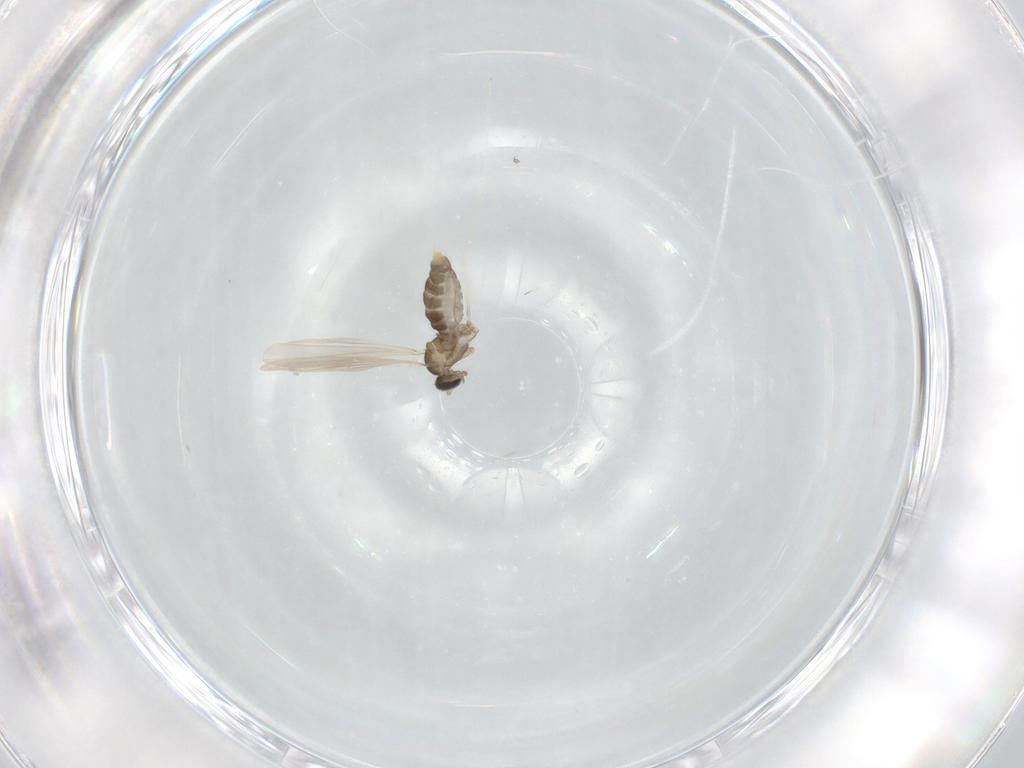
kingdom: Animalia
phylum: Arthropoda
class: Insecta
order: Diptera
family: Cecidomyiidae
